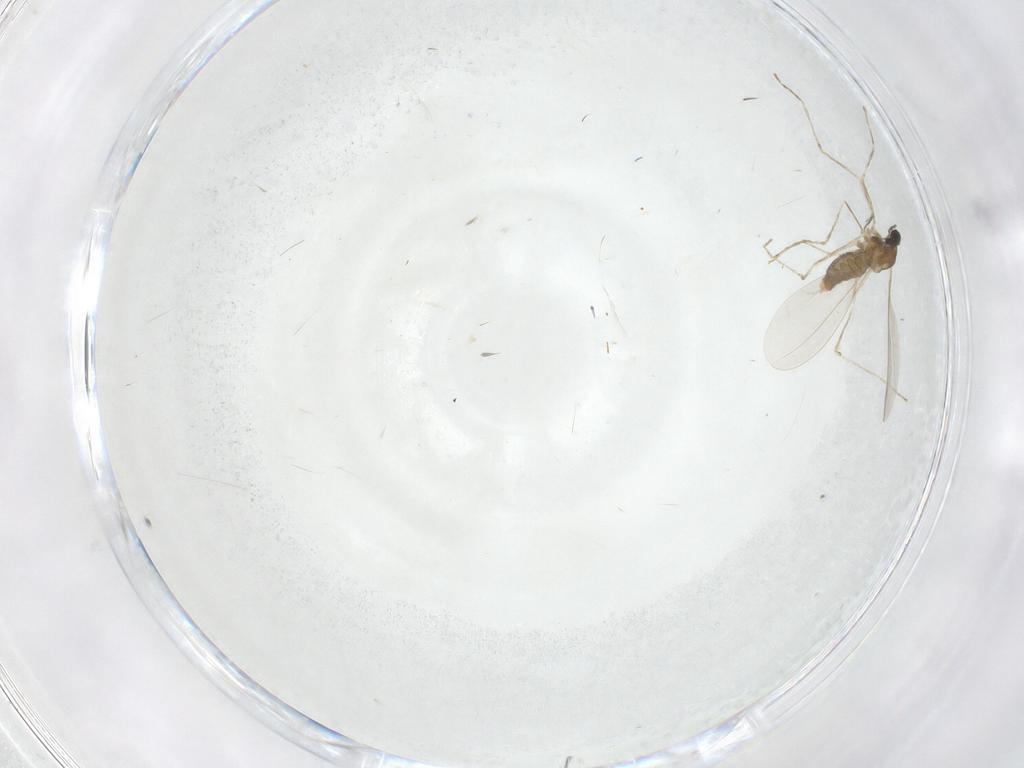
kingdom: Animalia
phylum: Arthropoda
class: Insecta
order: Diptera
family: Cecidomyiidae
